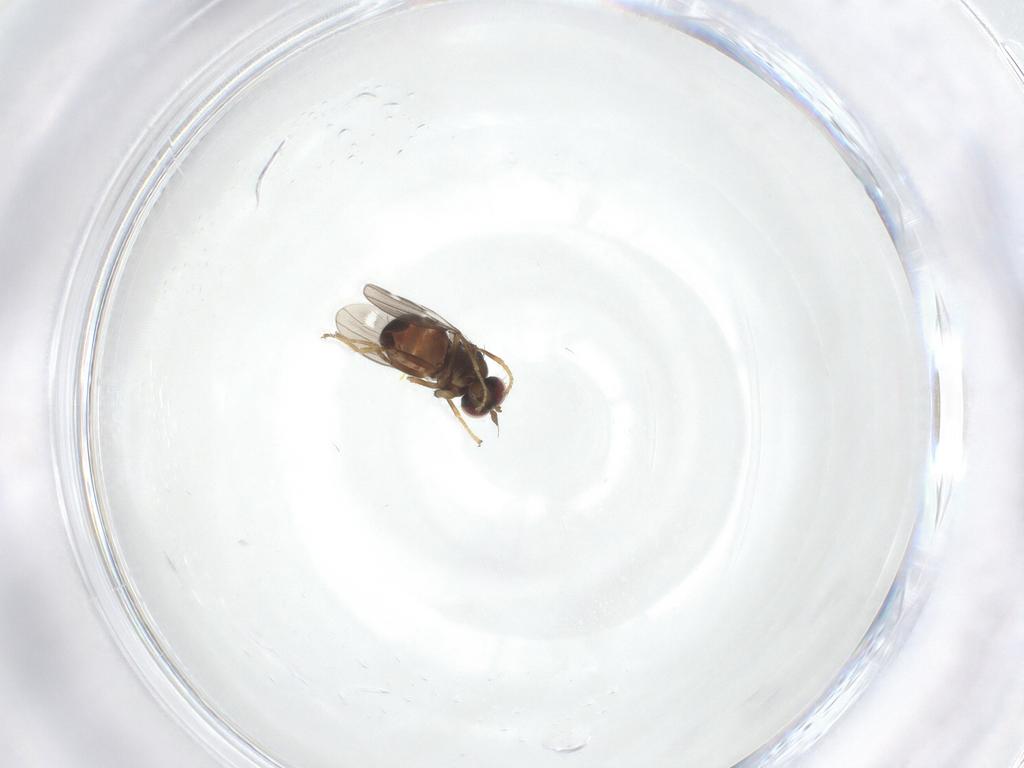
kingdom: Animalia
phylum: Arthropoda
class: Insecta
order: Diptera
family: Ephydridae
